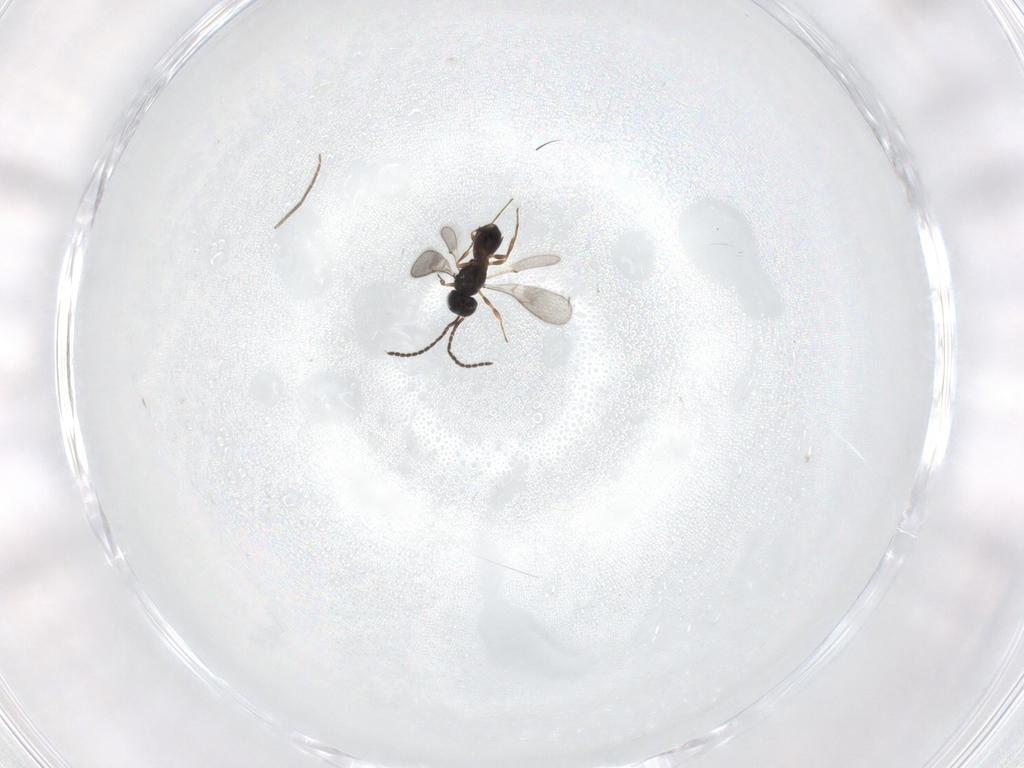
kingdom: Animalia
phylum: Arthropoda
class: Insecta
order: Hymenoptera
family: Scelionidae
